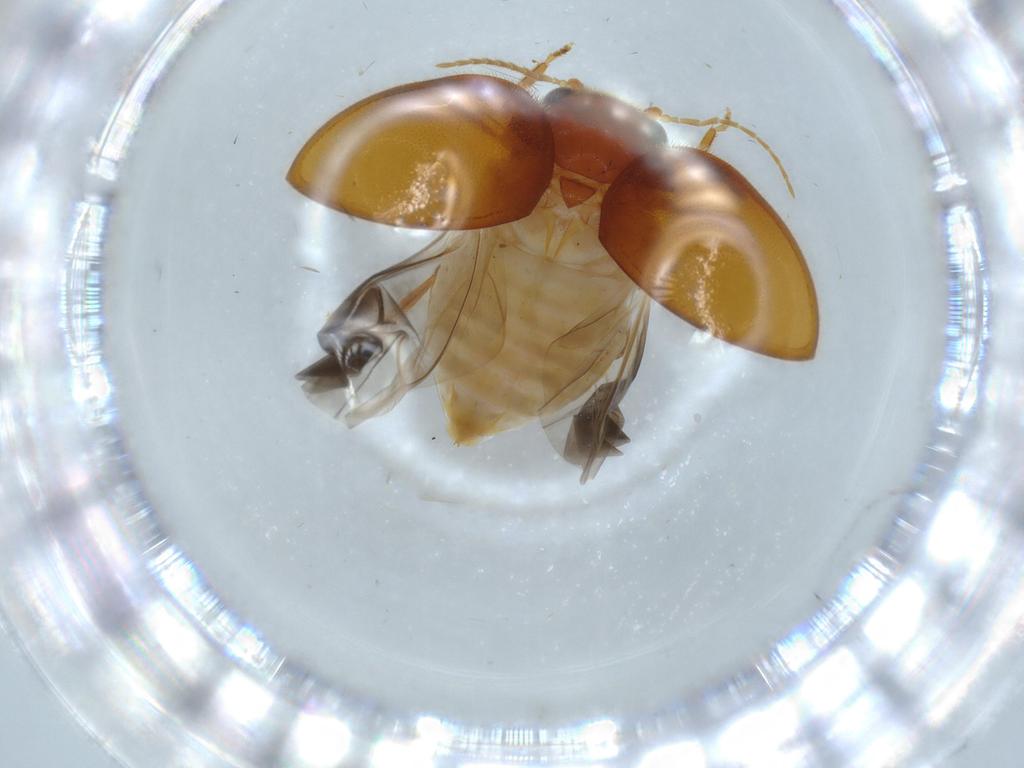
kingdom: Animalia
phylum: Arthropoda
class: Insecta
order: Coleoptera
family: Scirtidae
